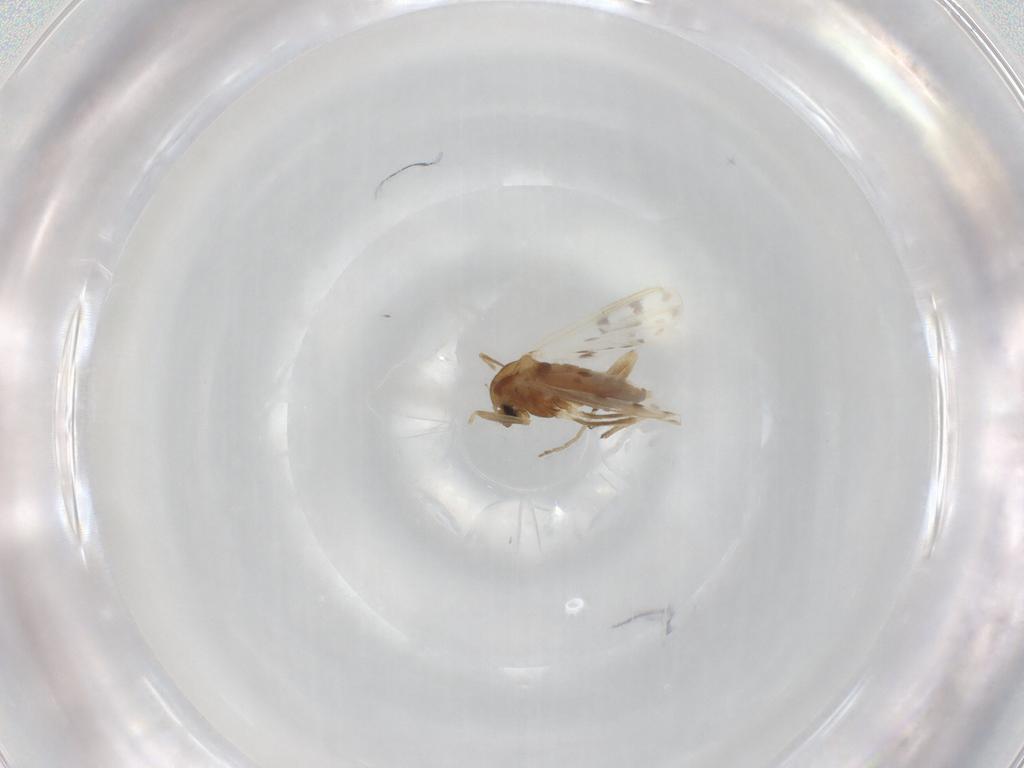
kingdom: Animalia
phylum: Arthropoda
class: Insecta
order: Diptera
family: Chironomidae
